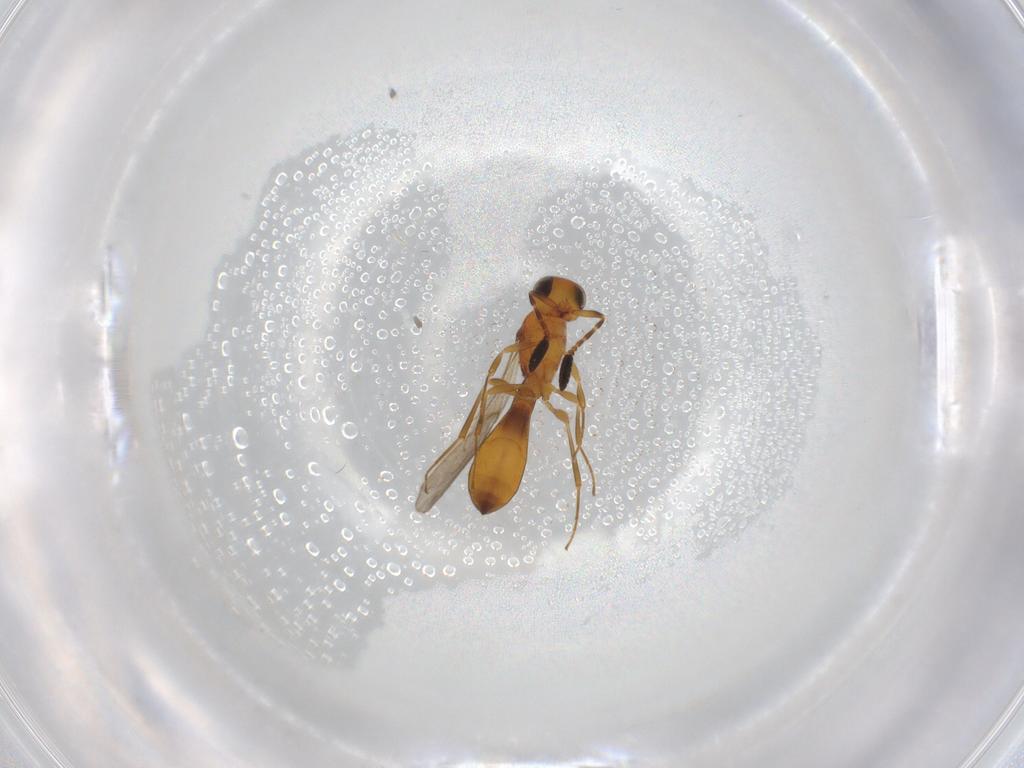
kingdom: Animalia
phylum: Arthropoda
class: Insecta
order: Hymenoptera
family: Scelionidae
